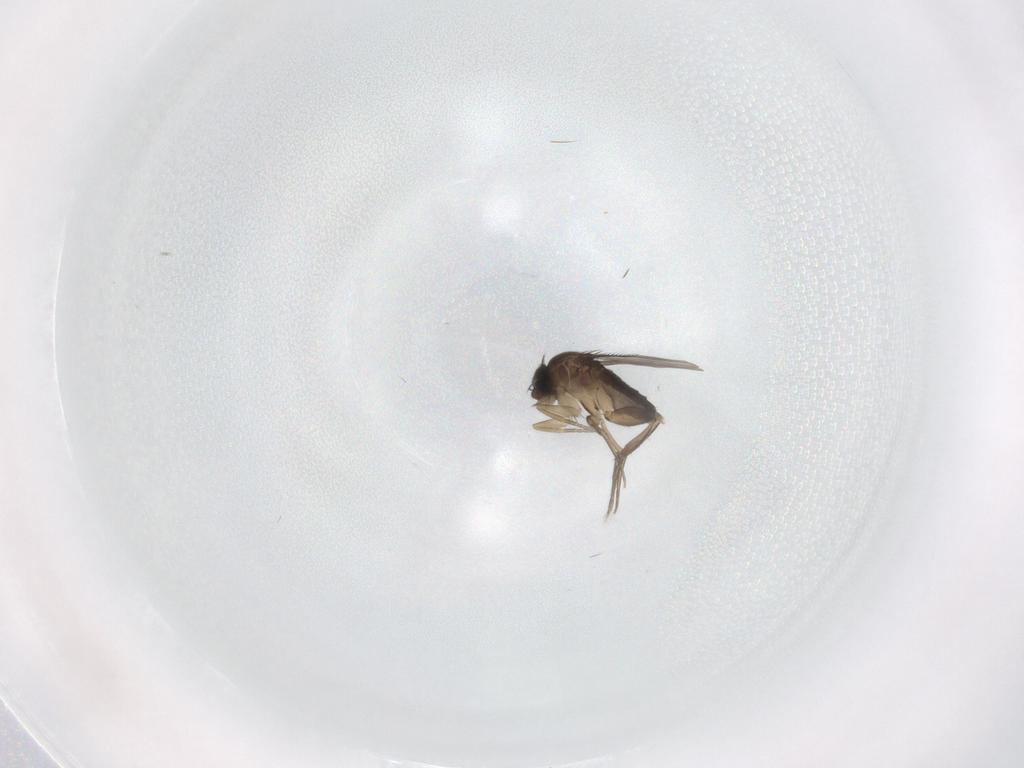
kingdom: Animalia
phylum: Arthropoda
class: Insecta
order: Diptera
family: Phoridae
